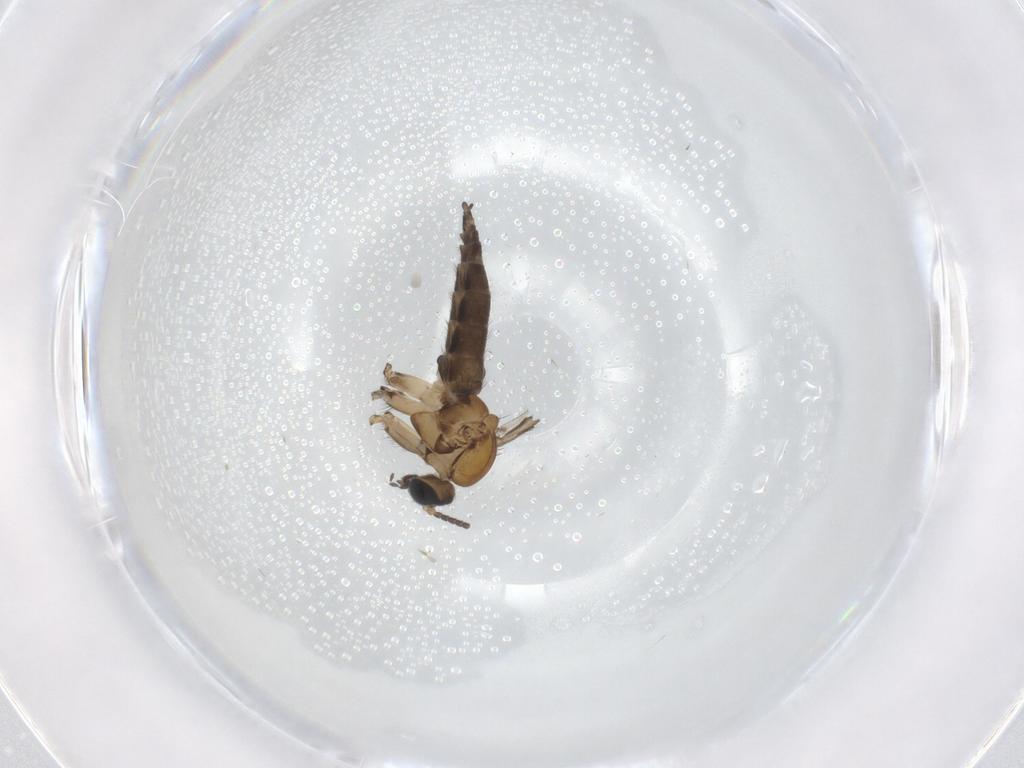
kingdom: Animalia
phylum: Arthropoda
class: Insecta
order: Diptera
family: Sciaridae
